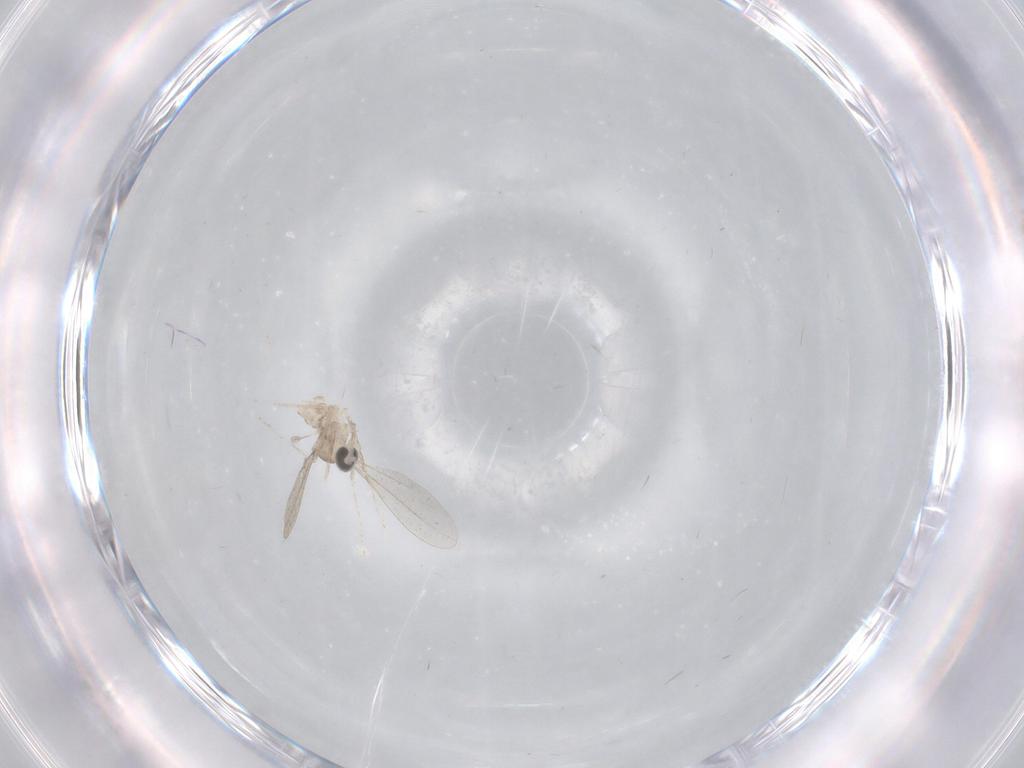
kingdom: Animalia
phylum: Arthropoda
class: Insecta
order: Diptera
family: Cecidomyiidae
